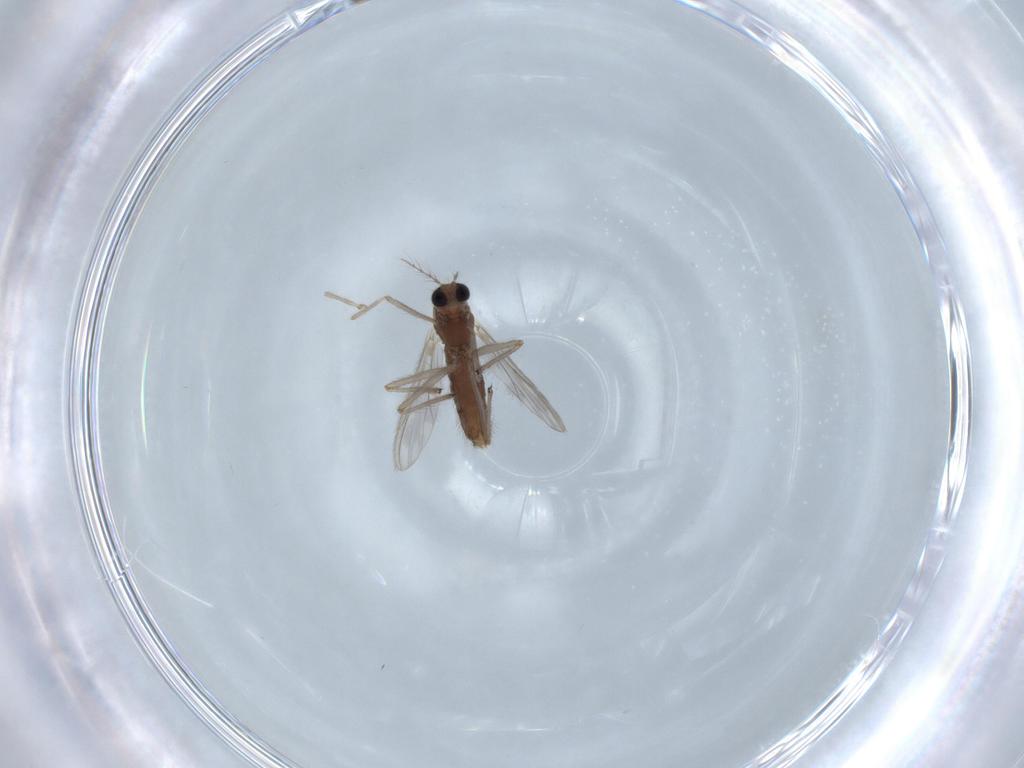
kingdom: Animalia
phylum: Arthropoda
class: Insecta
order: Diptera
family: Chironomidae
